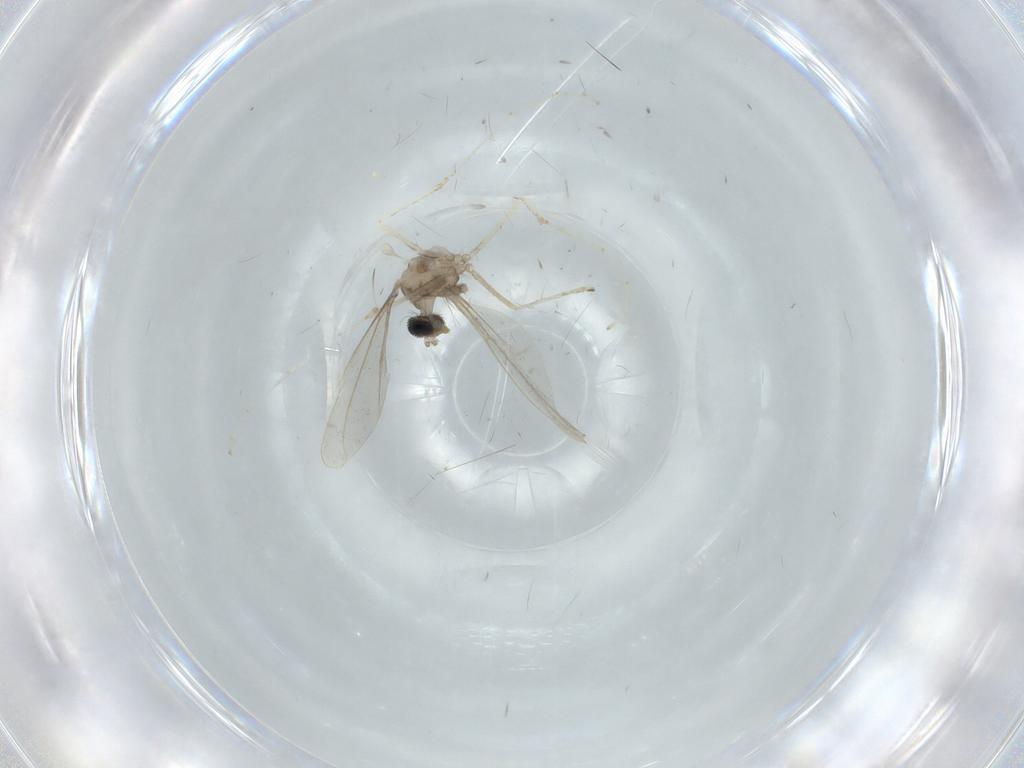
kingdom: Animalia
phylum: Arthropoda
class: Insecta
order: Diptera
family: Cecidomyiidae
